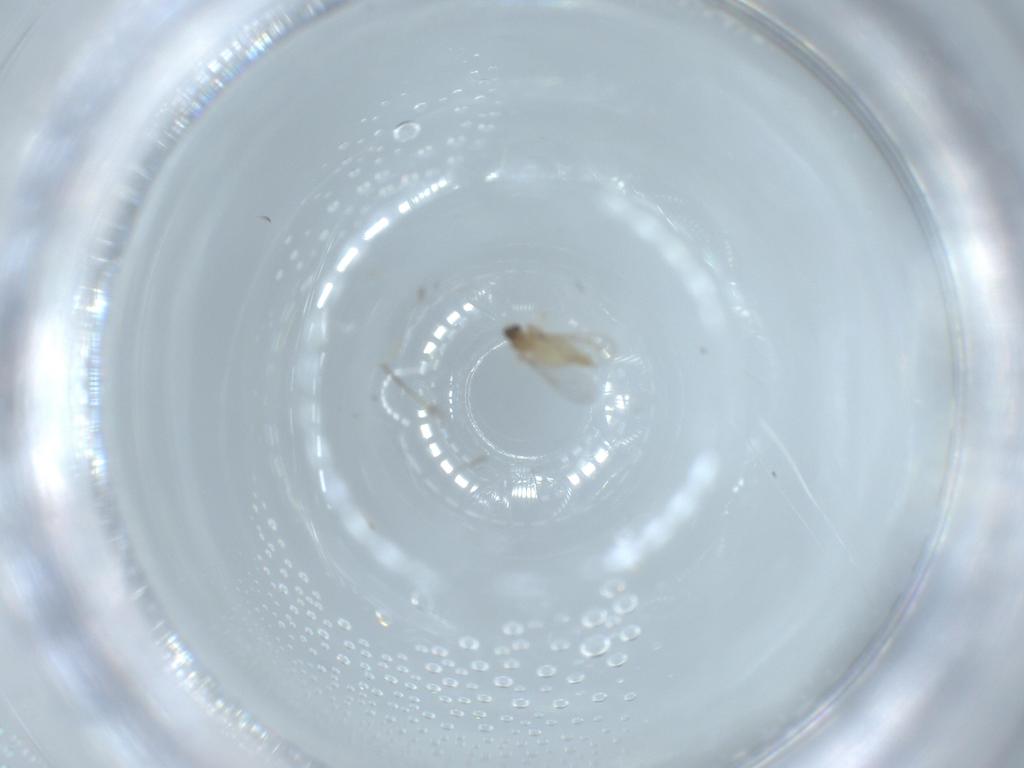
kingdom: Animalia
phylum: Arthropoda
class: Insecta
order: Diptera
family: Cecidomyiidae
